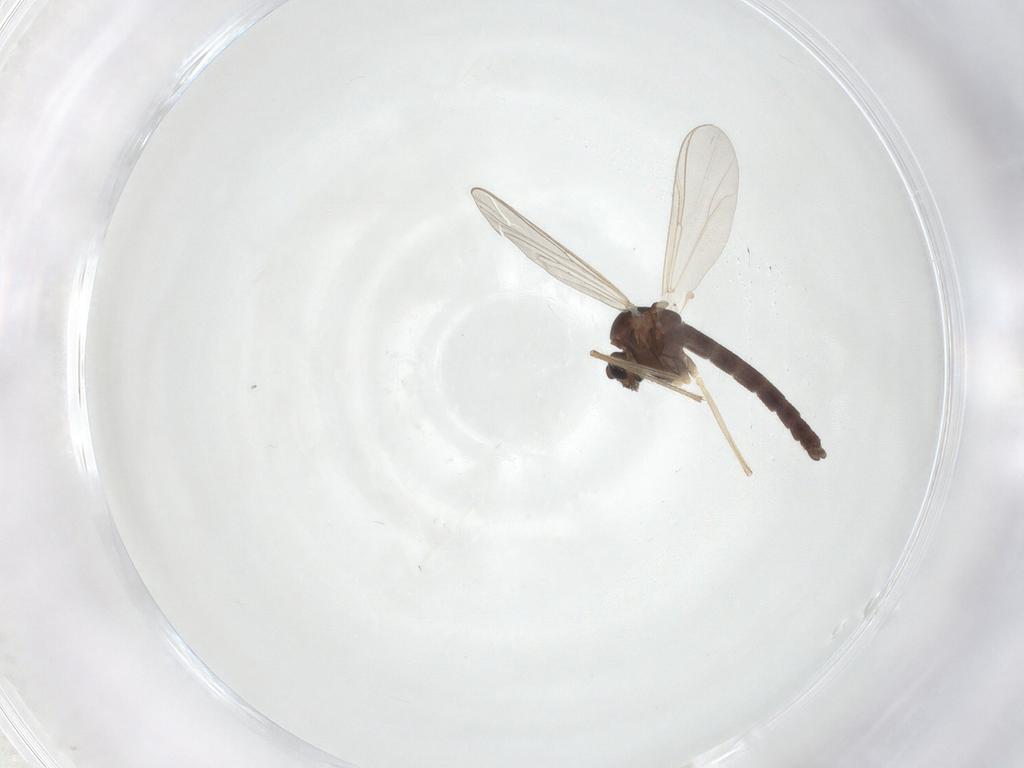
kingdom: Animalia
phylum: Arthropoda
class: Insecta
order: Diptera
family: Chironomidae
